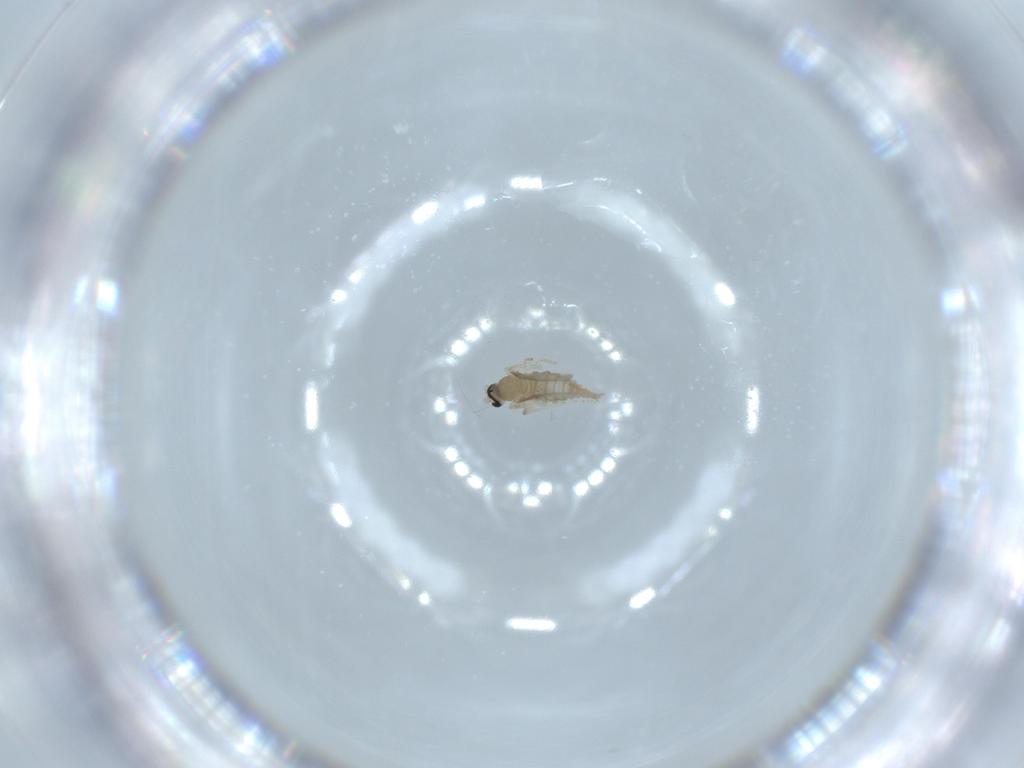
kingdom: Animalia
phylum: Arthropoda
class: Insecta
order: Diptera
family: Cecidomyiidae
